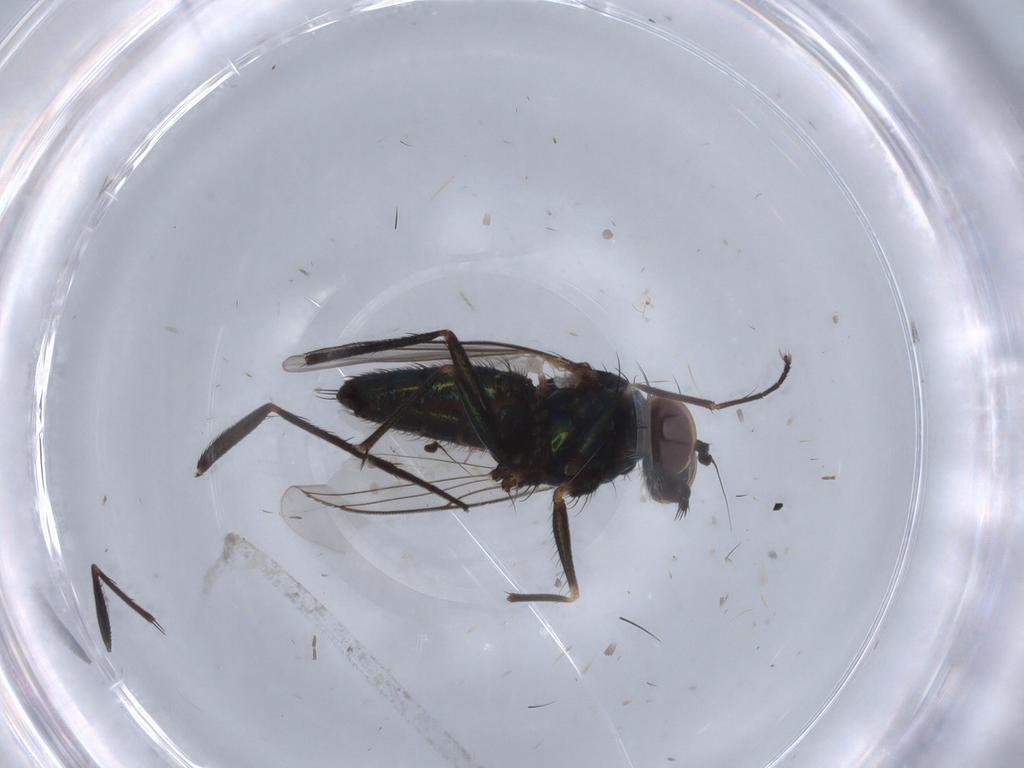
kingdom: Animalia
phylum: Arthropoda
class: Insecta
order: Diptera
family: Dolichopodidae
